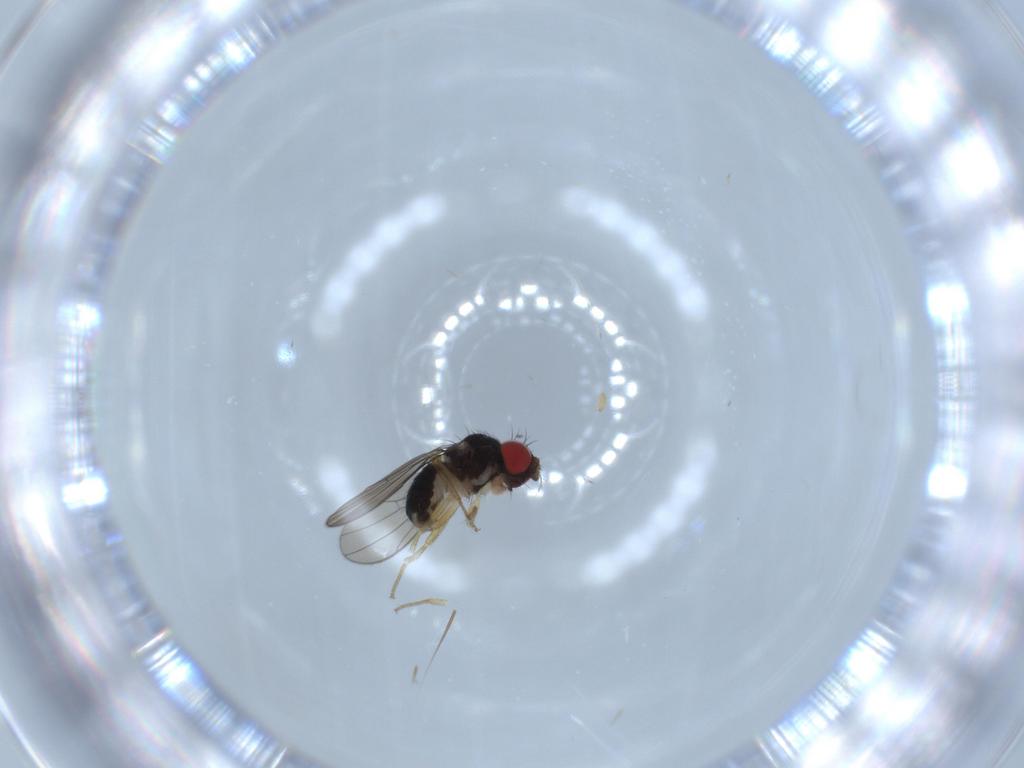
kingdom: Animalia
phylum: Arthropoda
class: Insecta
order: Diptera
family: Drosophilidae
